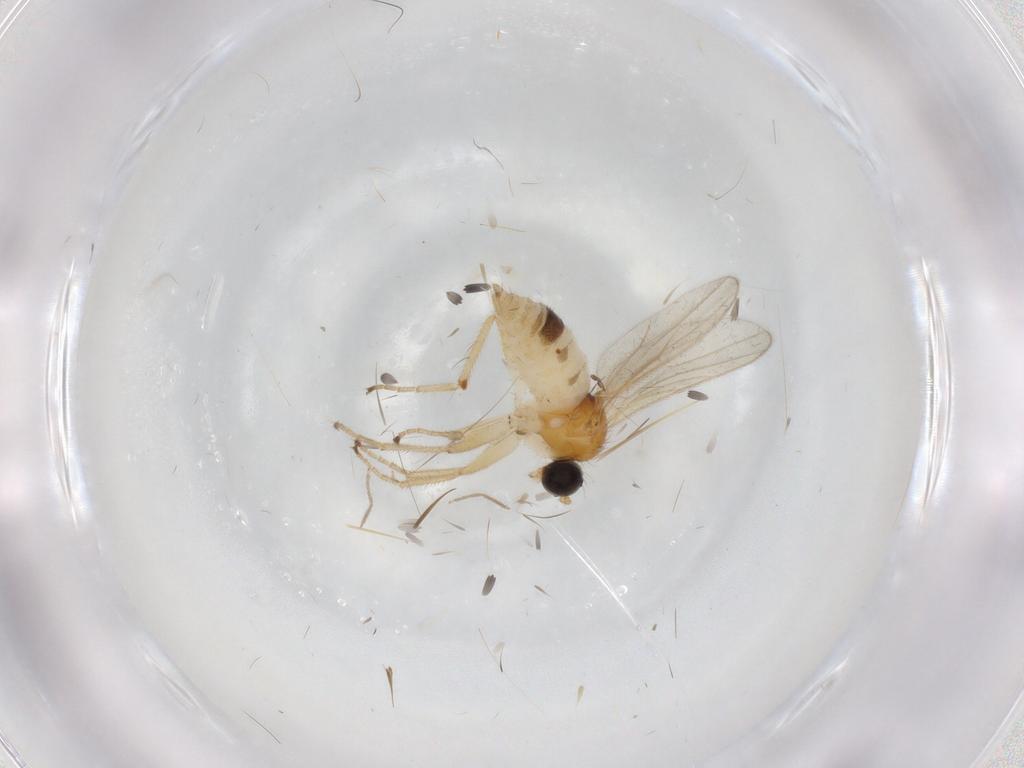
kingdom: Animalia
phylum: Arthropoda
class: Insecta
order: Diptera
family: Hybotidae
